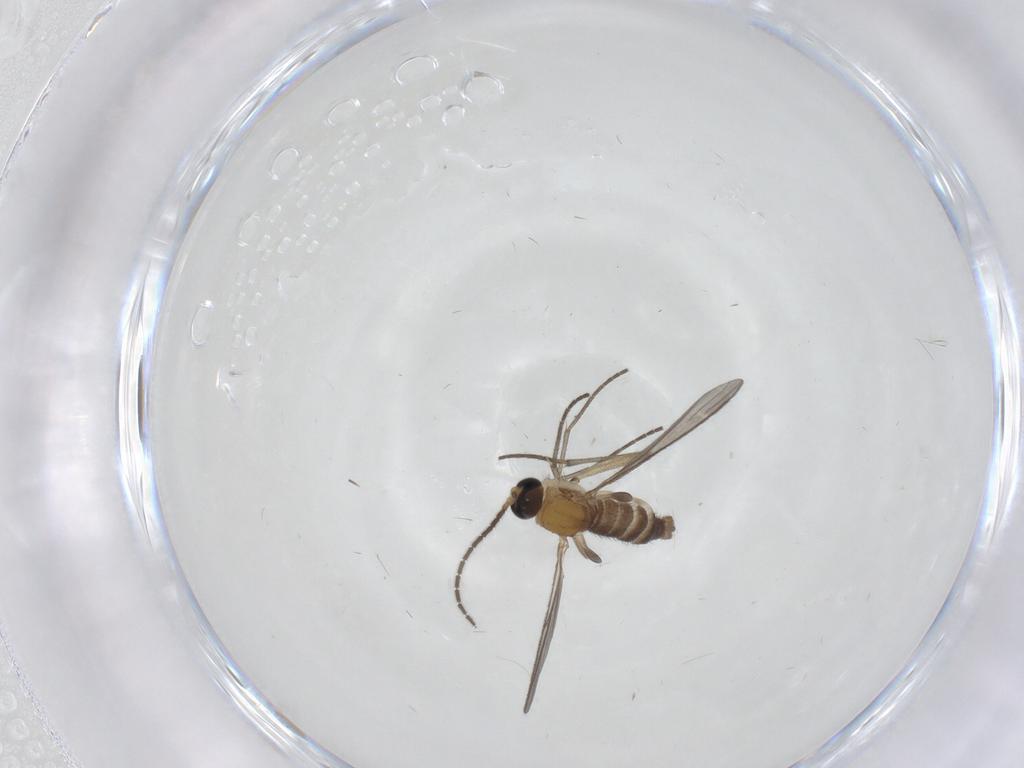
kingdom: Animalia
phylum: Arthropoda
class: Insecta
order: Diptera
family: Sciaridae
